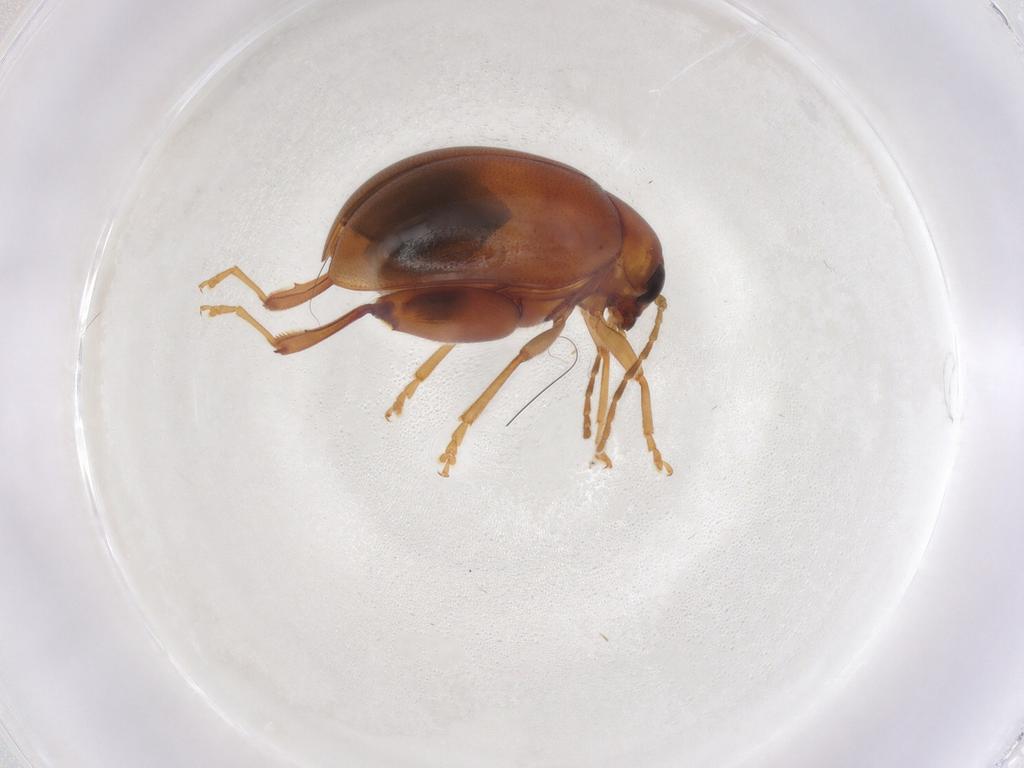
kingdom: Animalia
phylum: Arthropoda
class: Insecta
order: Coleoptera
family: Chrysomelidae
